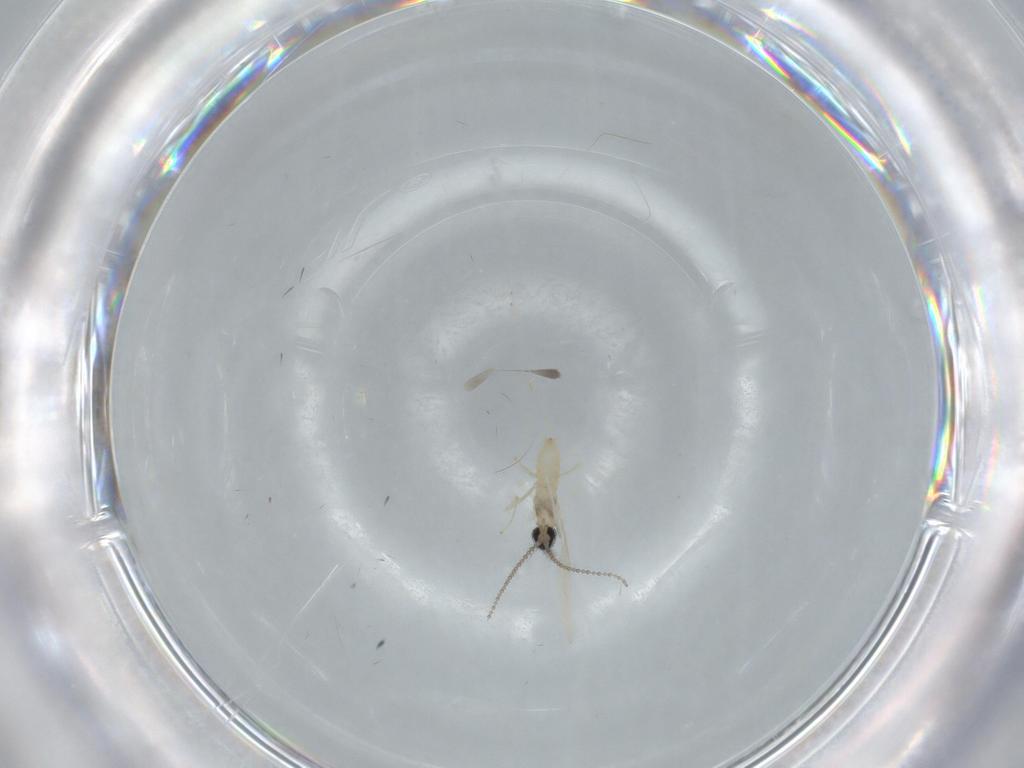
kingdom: Animalia
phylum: Arthropoda
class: Insecta
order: Diptera
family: Cecidomyiidae
